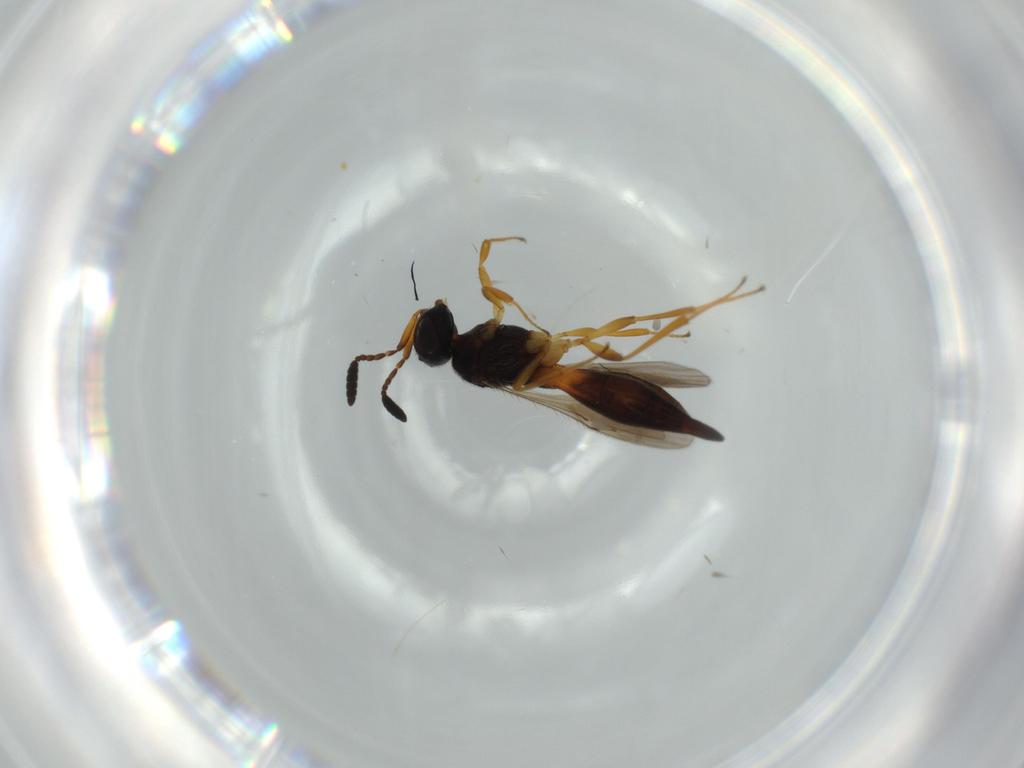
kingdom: Animalia
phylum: Arthropoda
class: Insecta
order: Hymenoptera
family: Scelionidae
